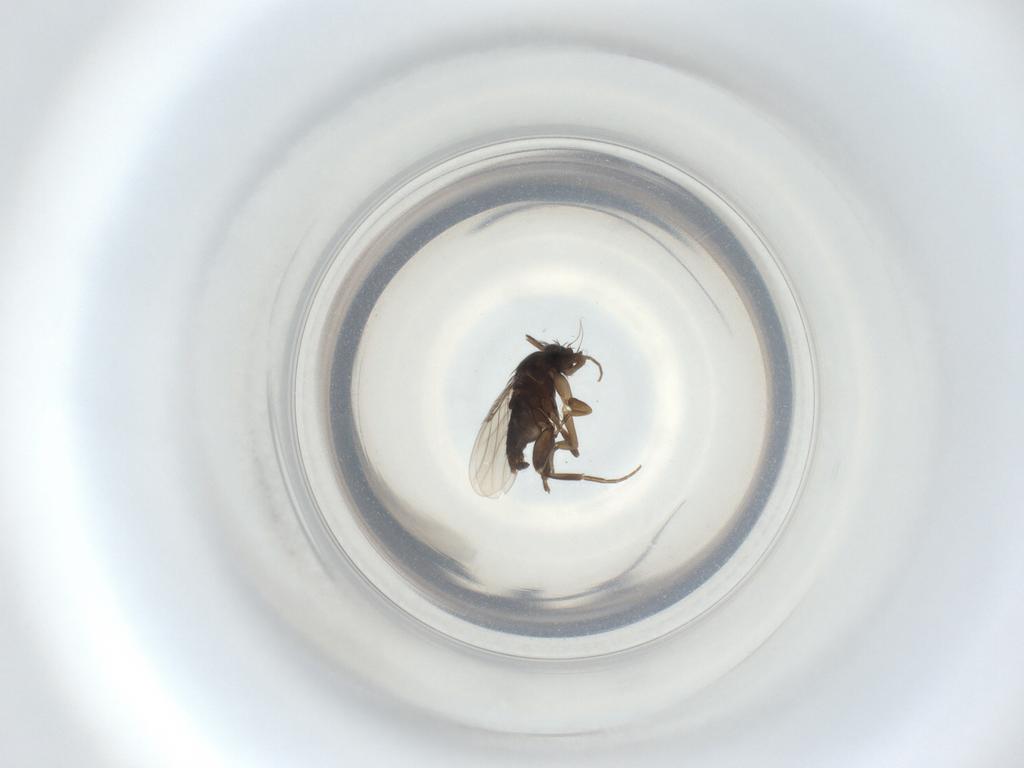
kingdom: Animalia
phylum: Arthropoda
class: Insecta
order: Diptera
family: Phoridae
